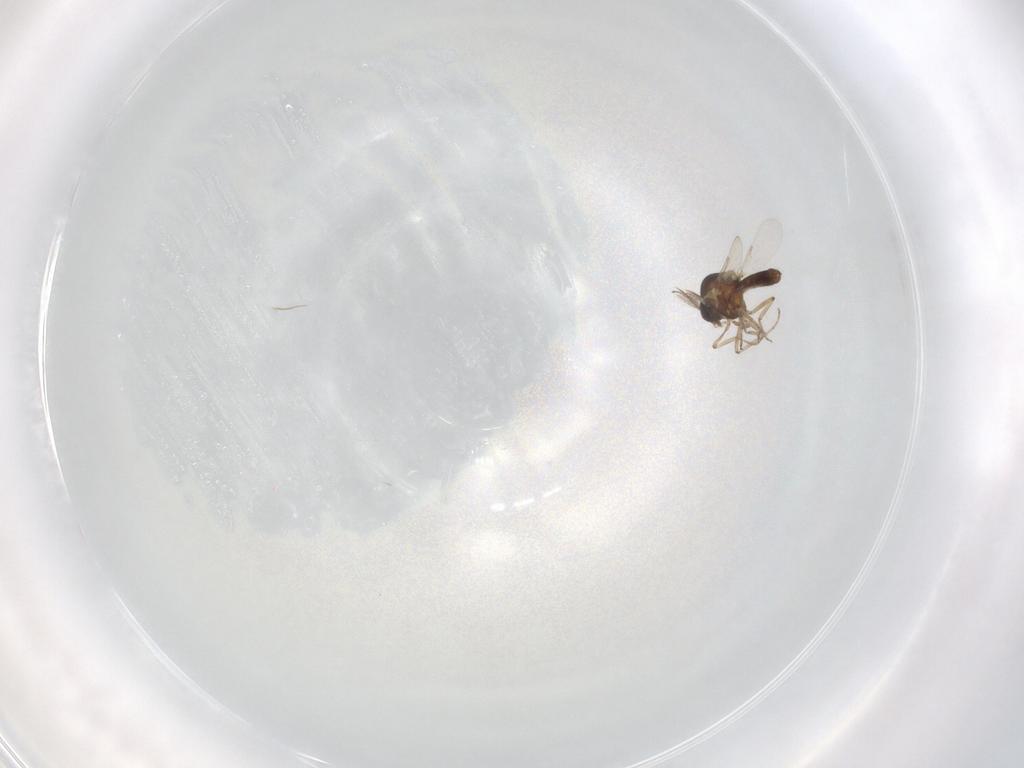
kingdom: Animalia
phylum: Arthropoda
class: Insecta
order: Diptera
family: Ceratopogonidae
